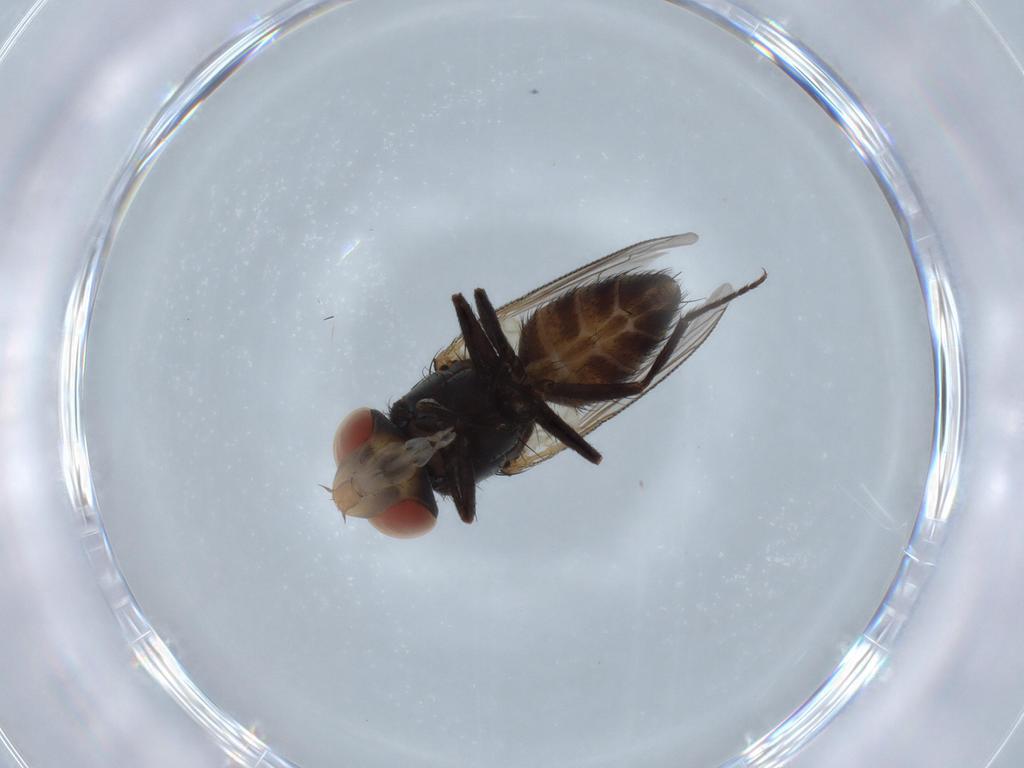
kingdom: Animalia
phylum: Arthropoda
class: Insecta
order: Diptera
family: Sarcophagidae
